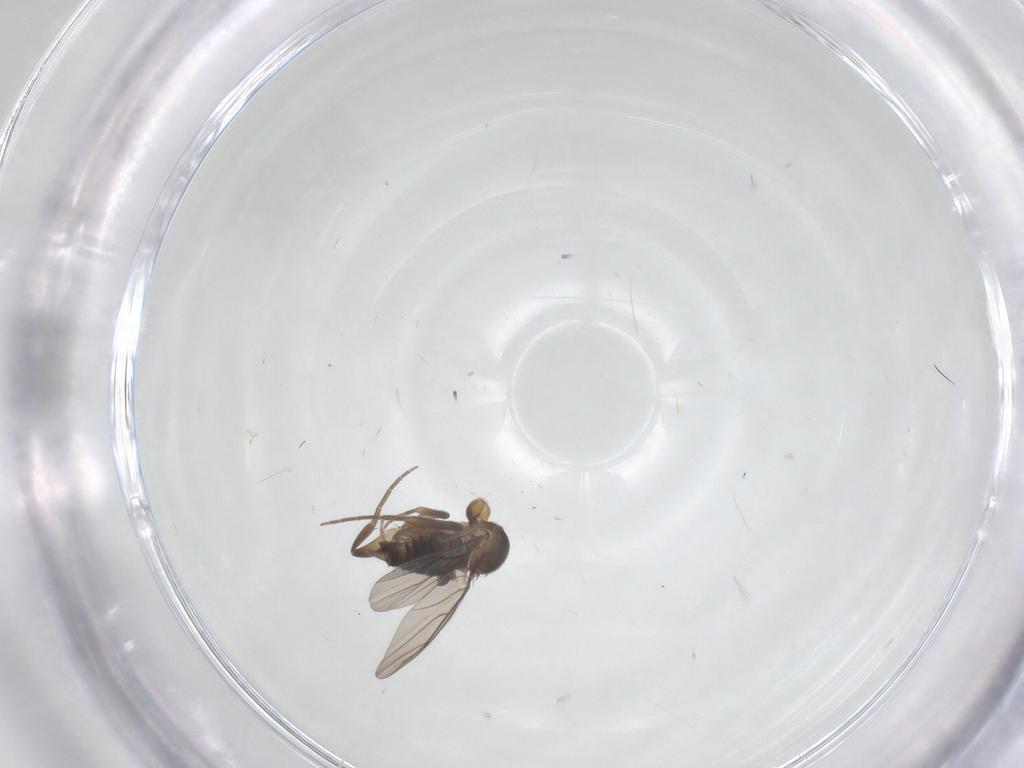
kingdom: Animalia
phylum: Arthropoda
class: Insecta
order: Diptera
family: Phoridae
